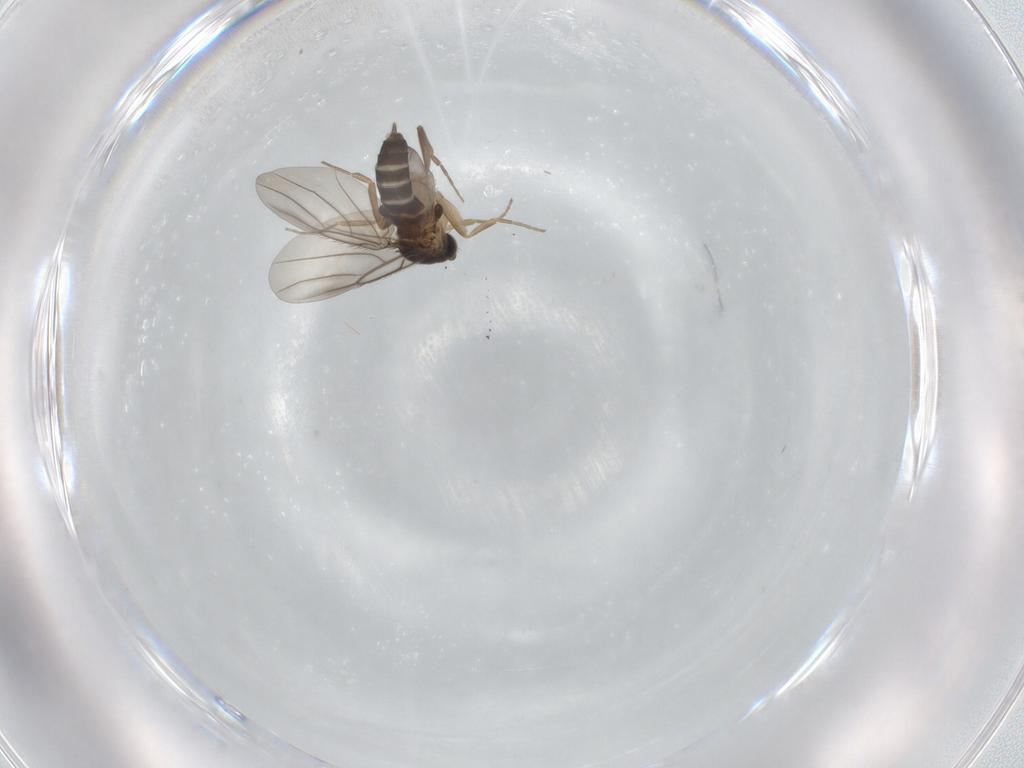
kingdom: Animalia
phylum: Arthropoda
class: Insecta
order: Diptera
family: Phoridae
